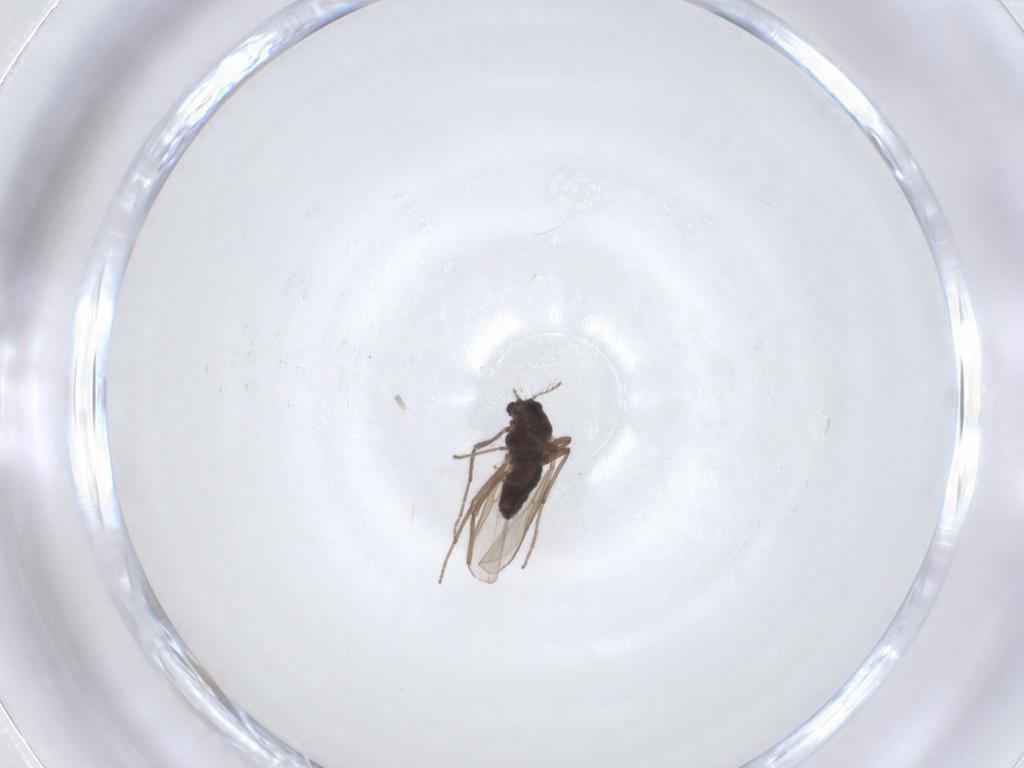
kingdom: Animalia
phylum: Arthropoda
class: Insecta
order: Diptera
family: Chironomidae
